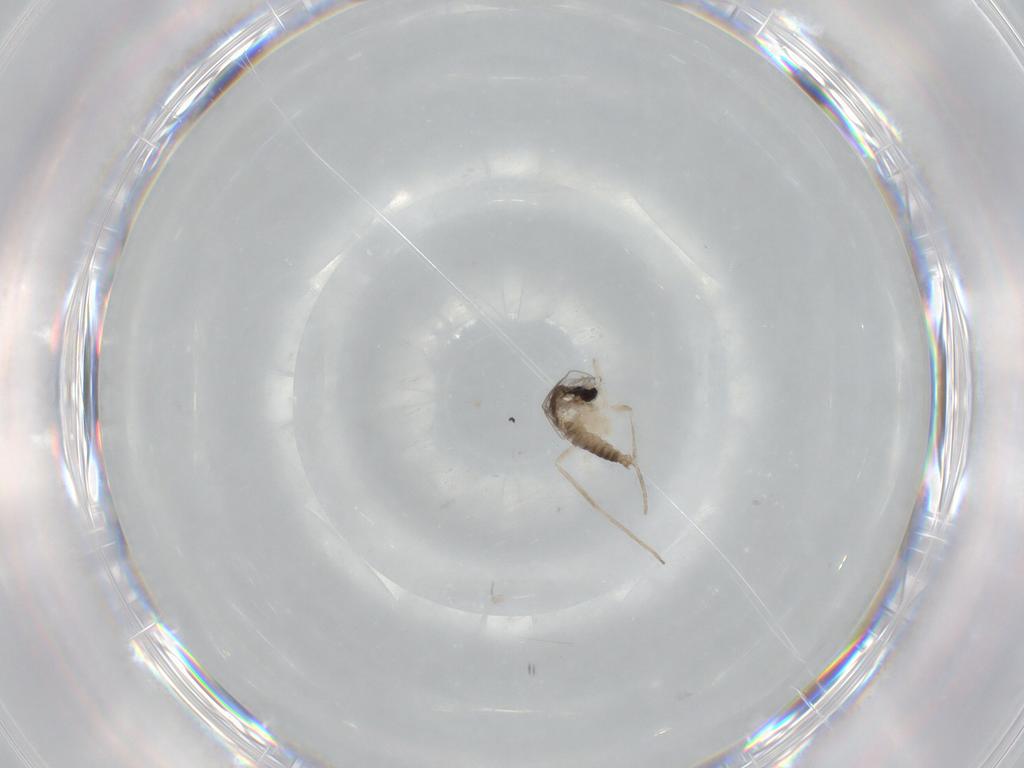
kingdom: Animalia
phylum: Arthropoda
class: Insecta
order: Diptera
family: Cecidomyiidae
